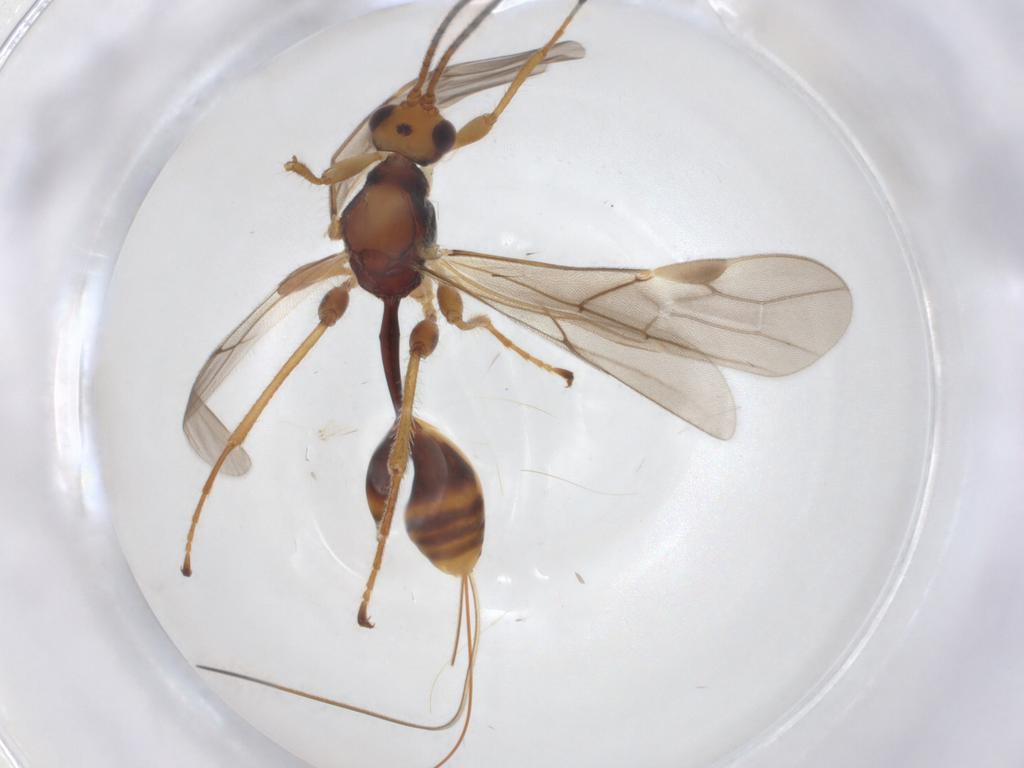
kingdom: Animalia
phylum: Arthropoda
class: Insecta
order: Hymenoptera
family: Braconidae
